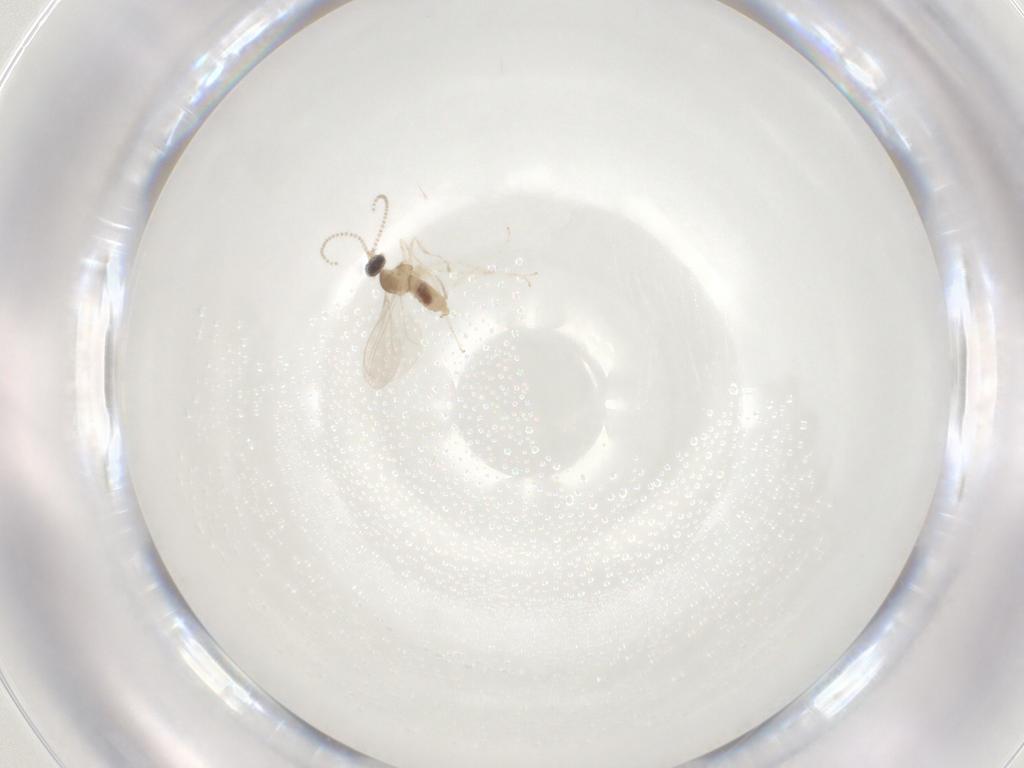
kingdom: Animalia
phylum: Arthropoda
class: Insecta
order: Diptera
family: Cecidomyiidae
